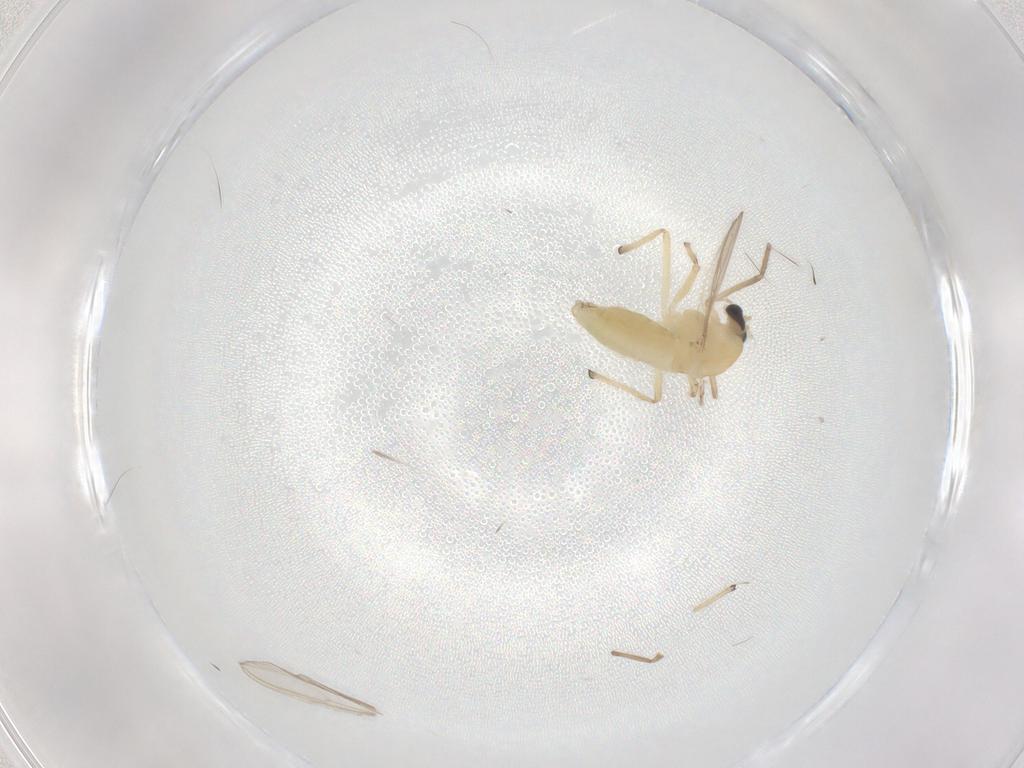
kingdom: Animalia
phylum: Arthropoda
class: Insecta
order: Diptera
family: Chironomidae
